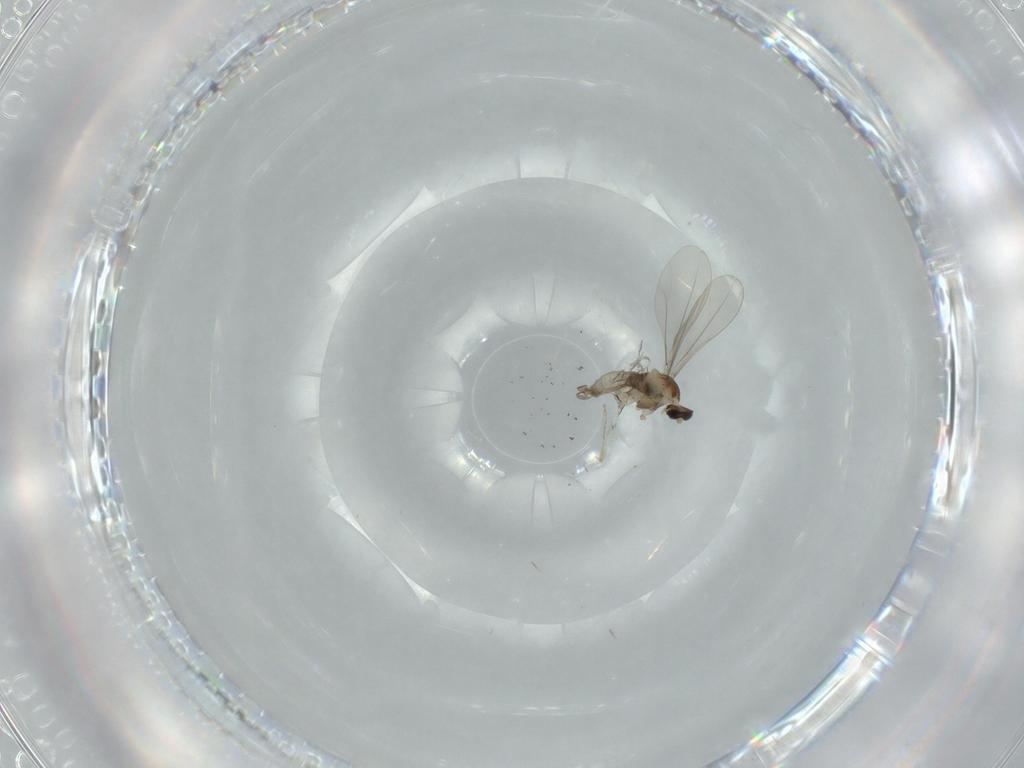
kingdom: Animalia
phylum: Arthropoda
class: Insecta
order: Diptera
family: Cecidomyiidae
